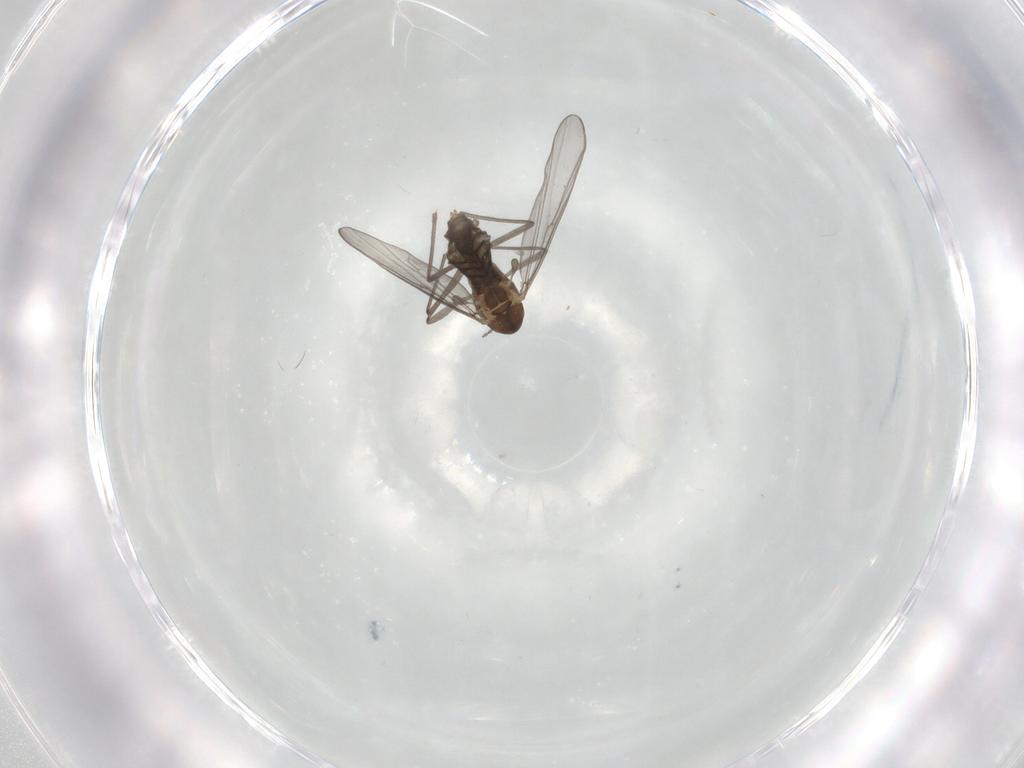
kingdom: Animalia
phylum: Arthropoda
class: Insecta
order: Diptera
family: Chironomidae
